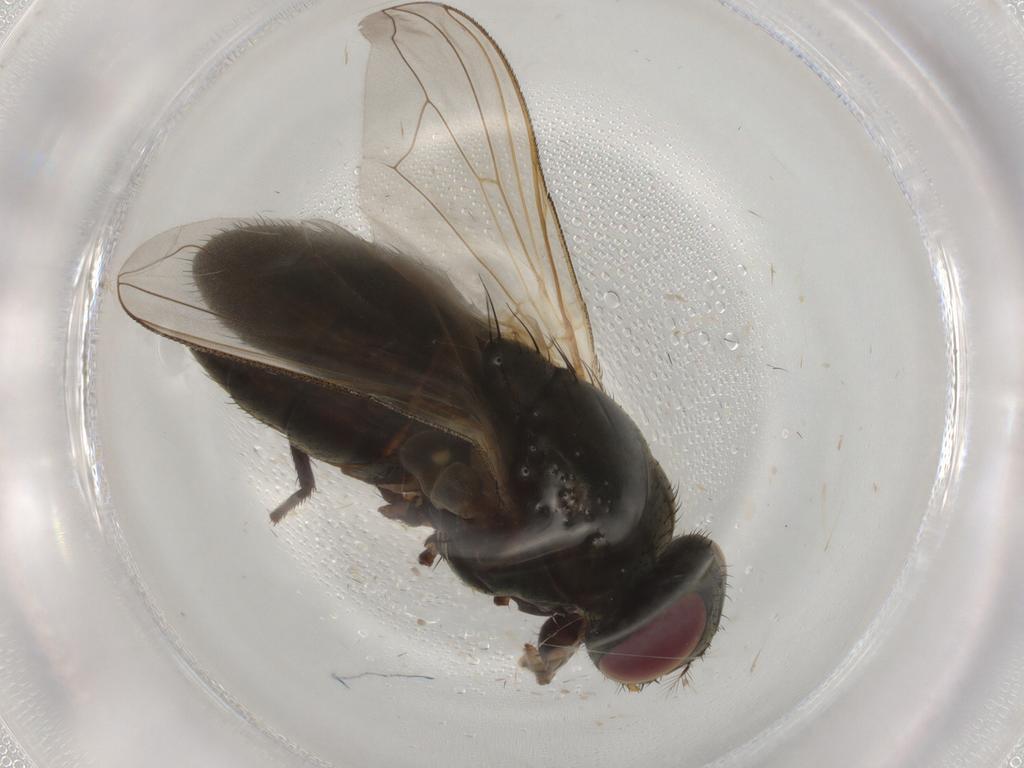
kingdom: Animalia
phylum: Arthropoda
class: Insecta
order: Diptera
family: Muscidae
